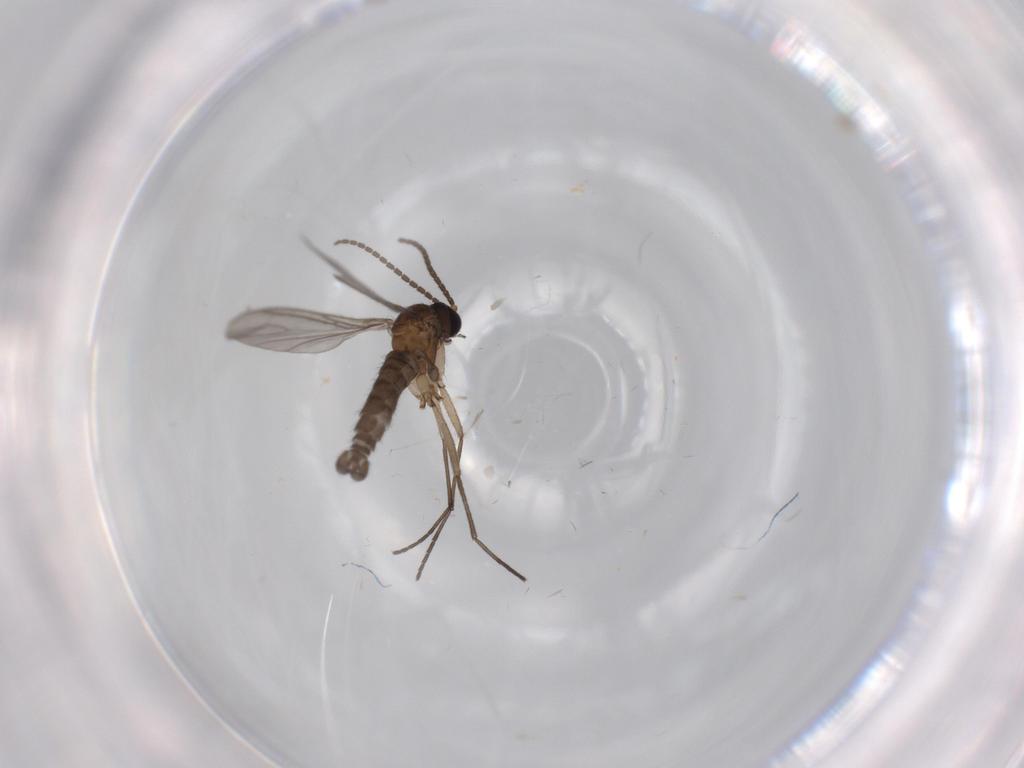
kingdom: Animalia
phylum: Arthropoda
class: Insecta
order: Diptera
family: Sciaridae
